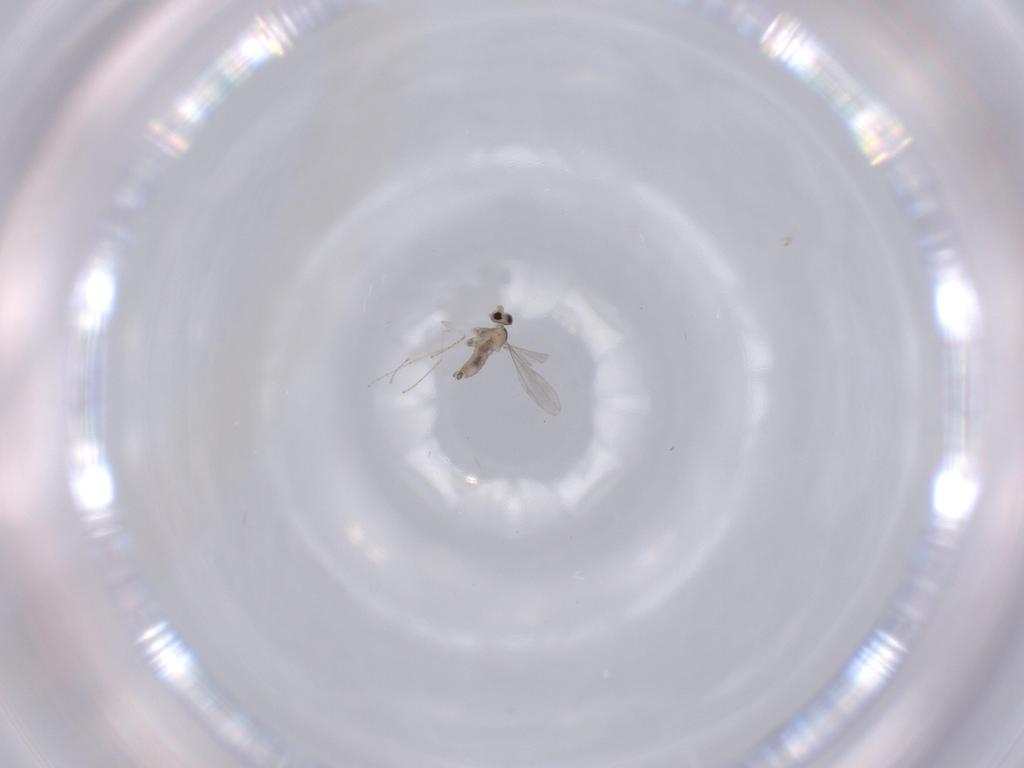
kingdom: Animalia
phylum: Arthropoda
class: Insecta
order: Diptera
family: Cecidomyiidae
